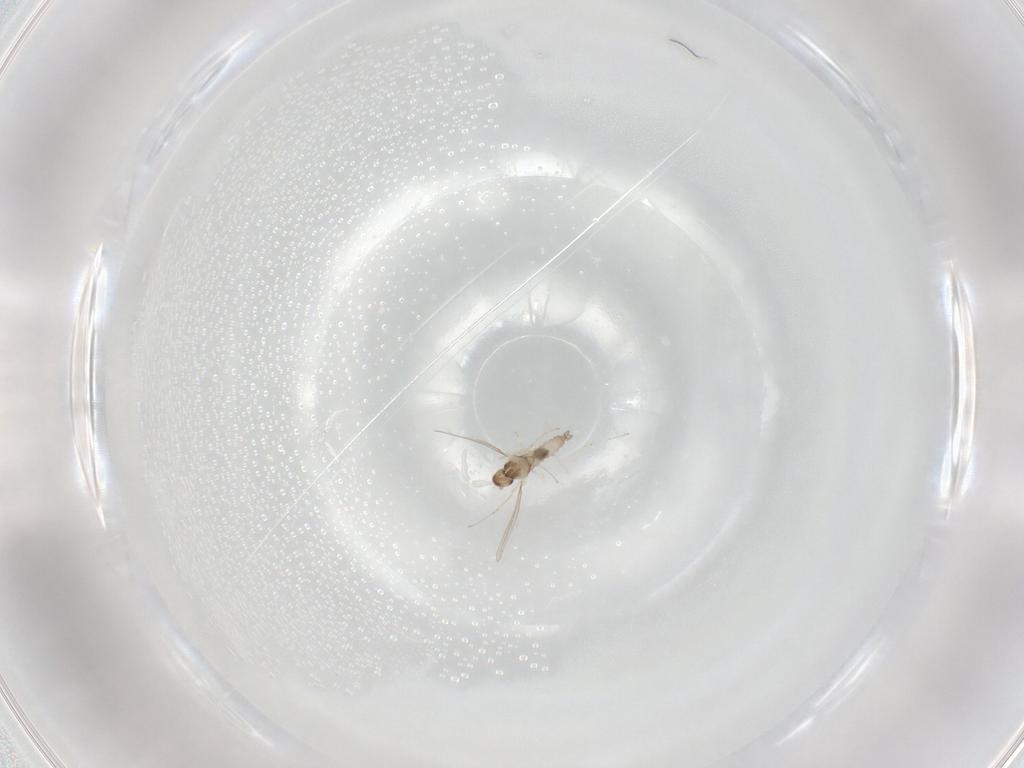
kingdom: Animalia
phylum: Arthropoda
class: Insecta
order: Diptera
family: Cecidomyiidae
